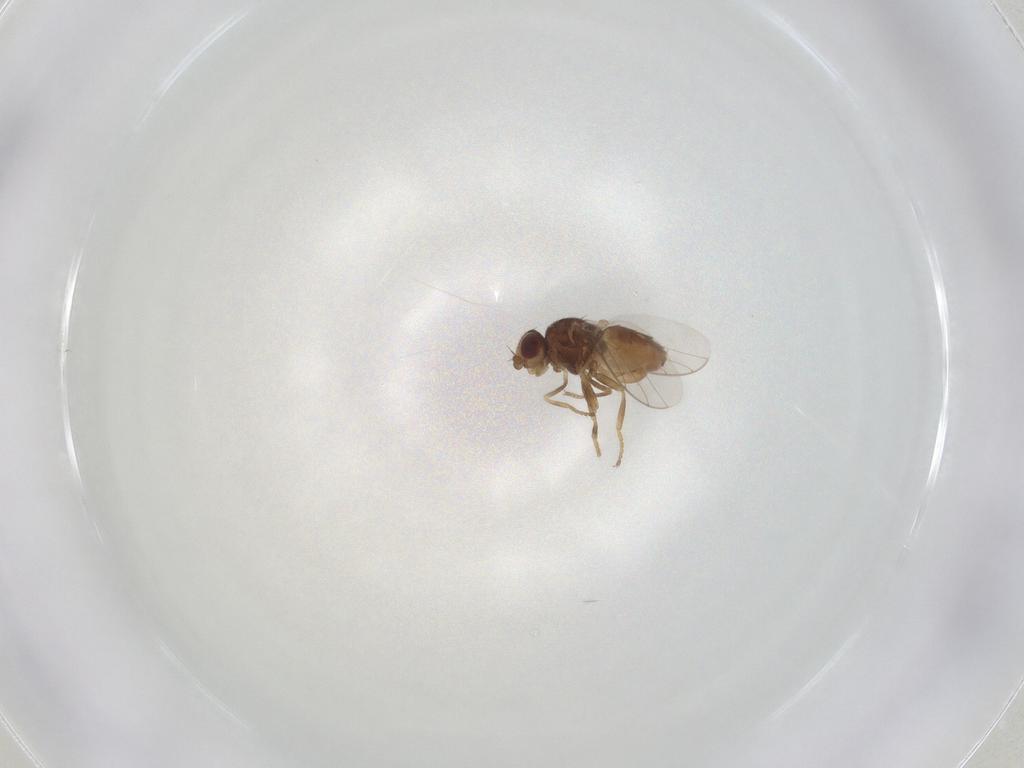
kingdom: Animalia
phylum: Arthropoda
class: Insecta
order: Diptera
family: Chloropidae
